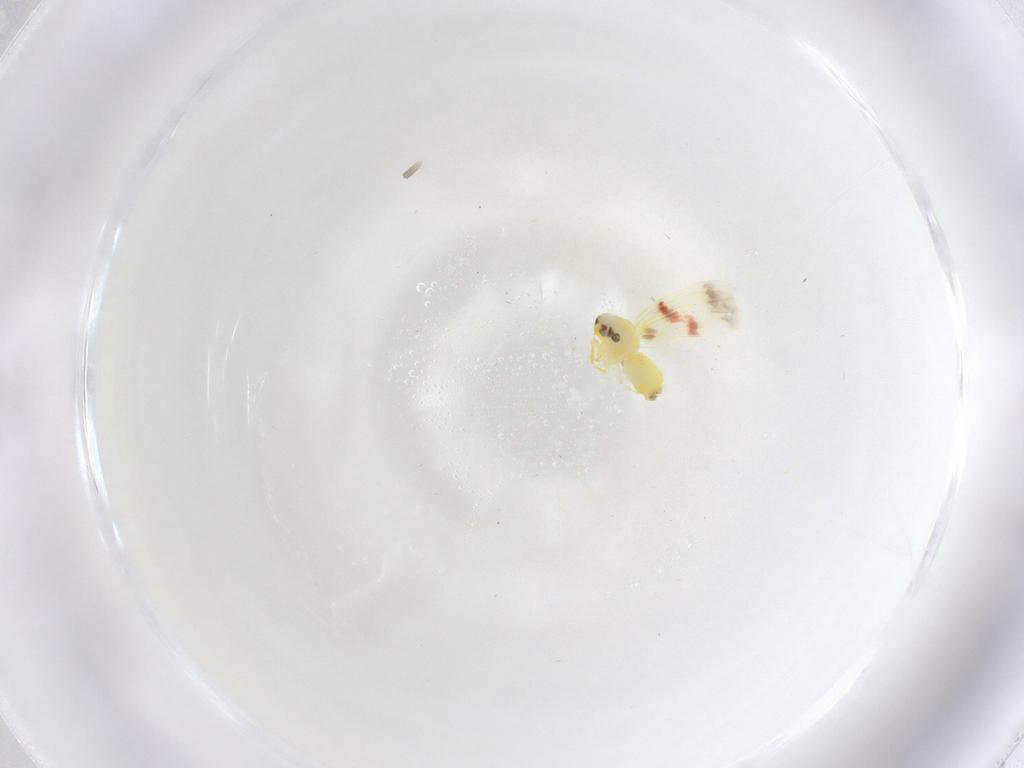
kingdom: Animalia
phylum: Arthropoda
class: Insecta
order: Hemiptera
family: Aleyrodidae
